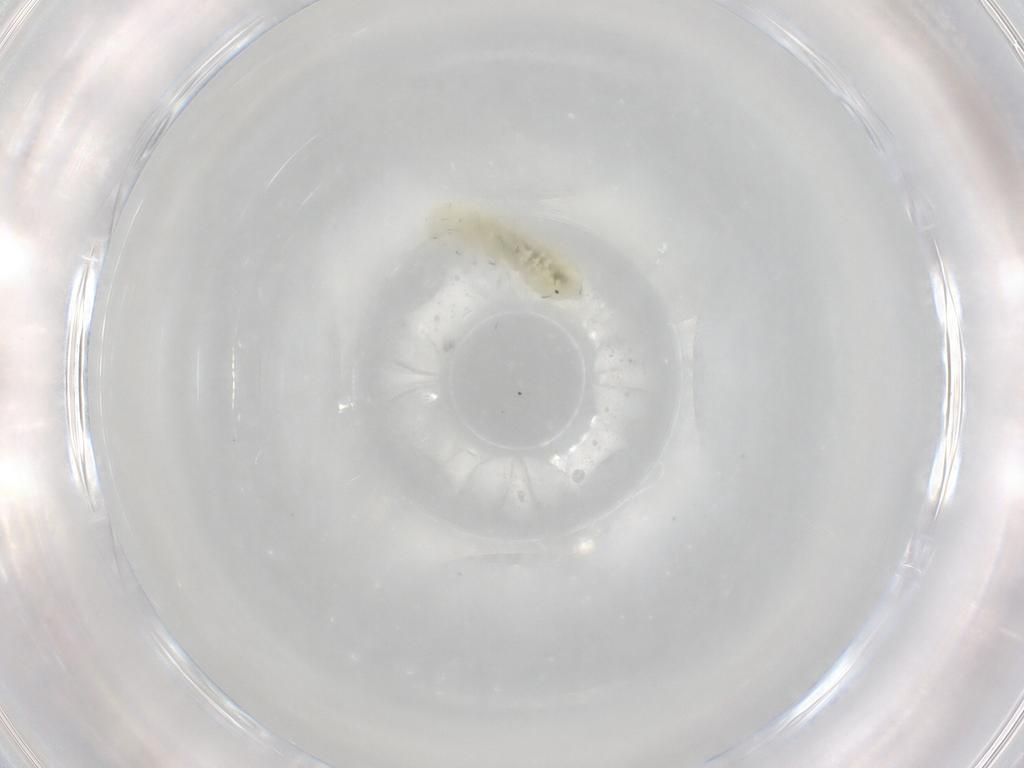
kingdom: Animalia
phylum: Arthropoda
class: Collembola
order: Poduromorpha
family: Onychiuridae
